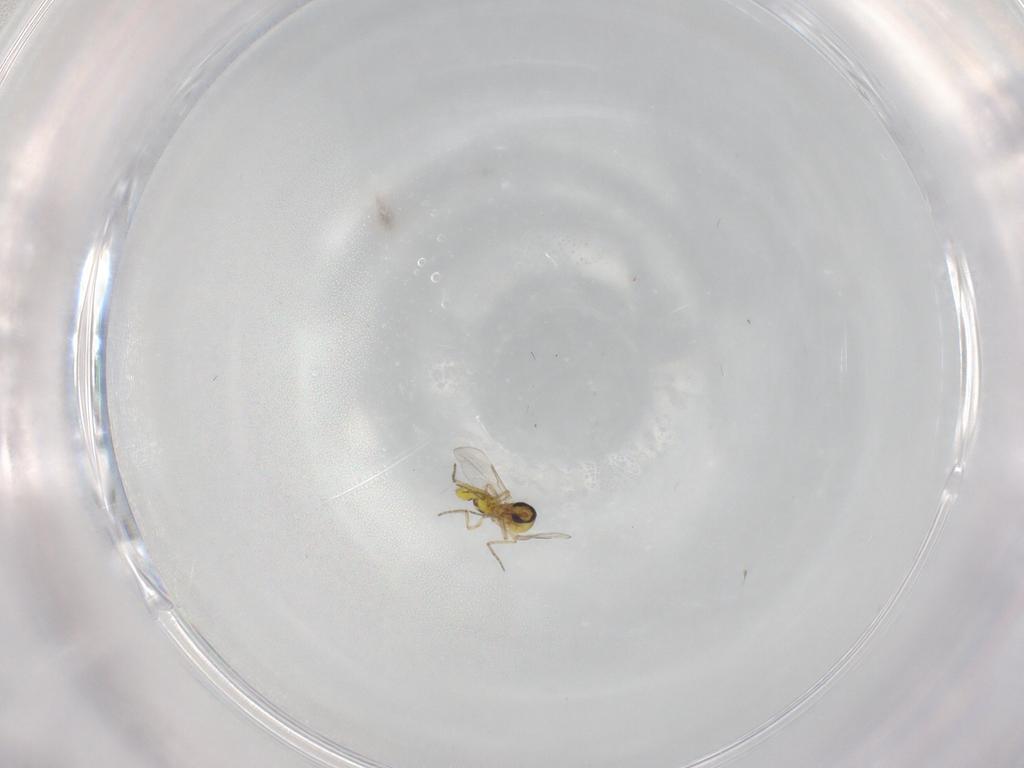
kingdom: Animalia
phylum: Arthropoda
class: Insecta
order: Diptera
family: Ceratopogonidae
